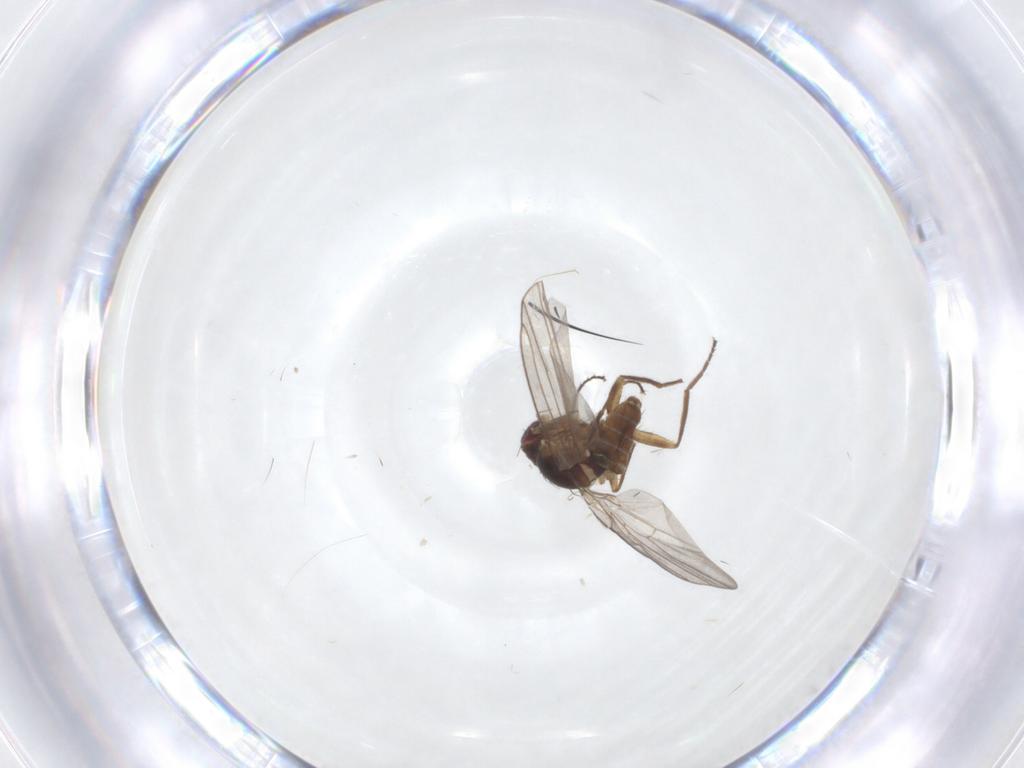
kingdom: Animalia
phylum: Arthropoda
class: Insecta
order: Diptera
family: Agromyzidae
